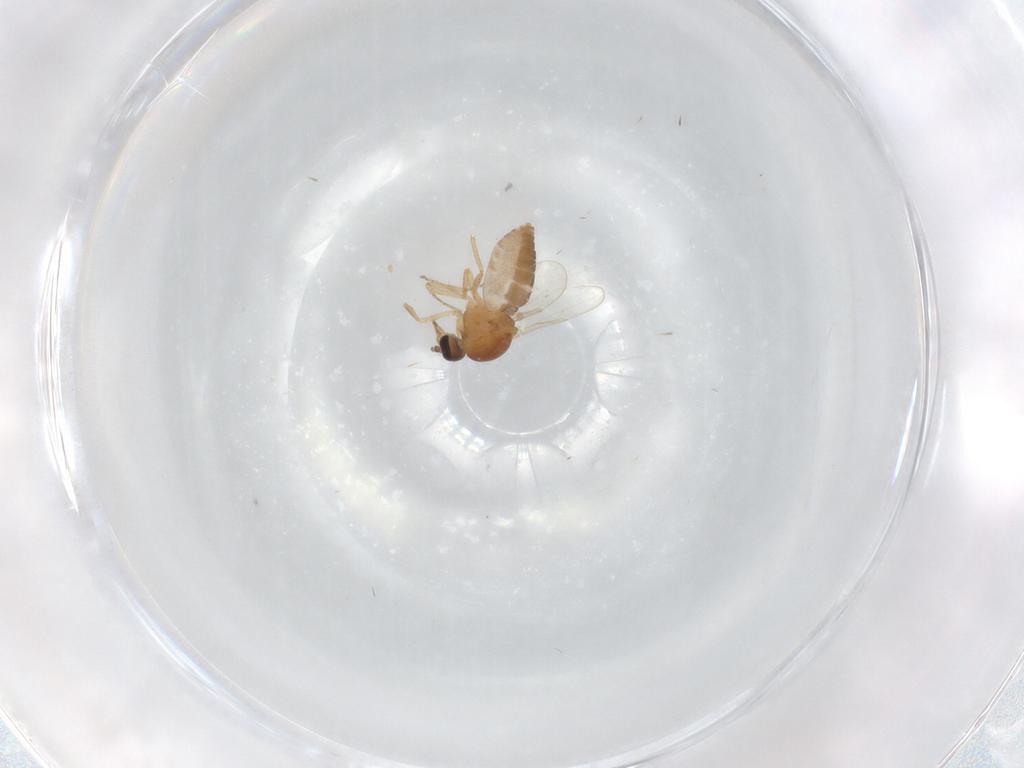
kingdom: Animalia
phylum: Arthropoda
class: Insecta
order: Diptera
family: Ceratopogonidae
